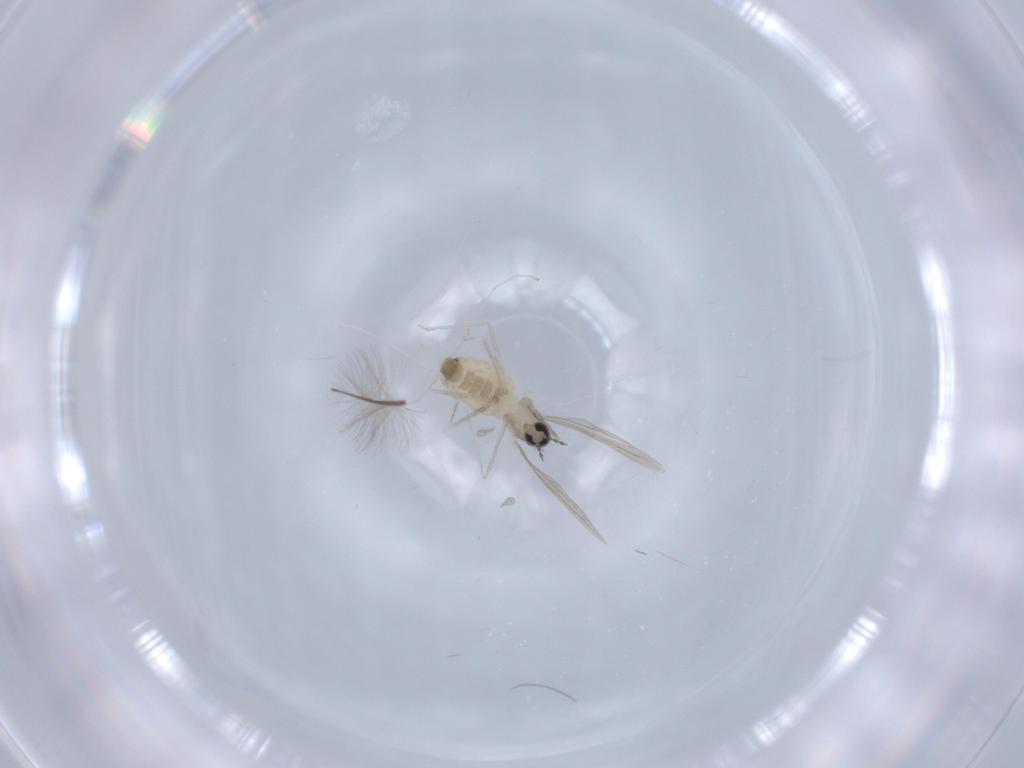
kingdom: Animalia
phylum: Arthropoda
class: Insecta
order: Diptera
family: Cecidomyiidae
